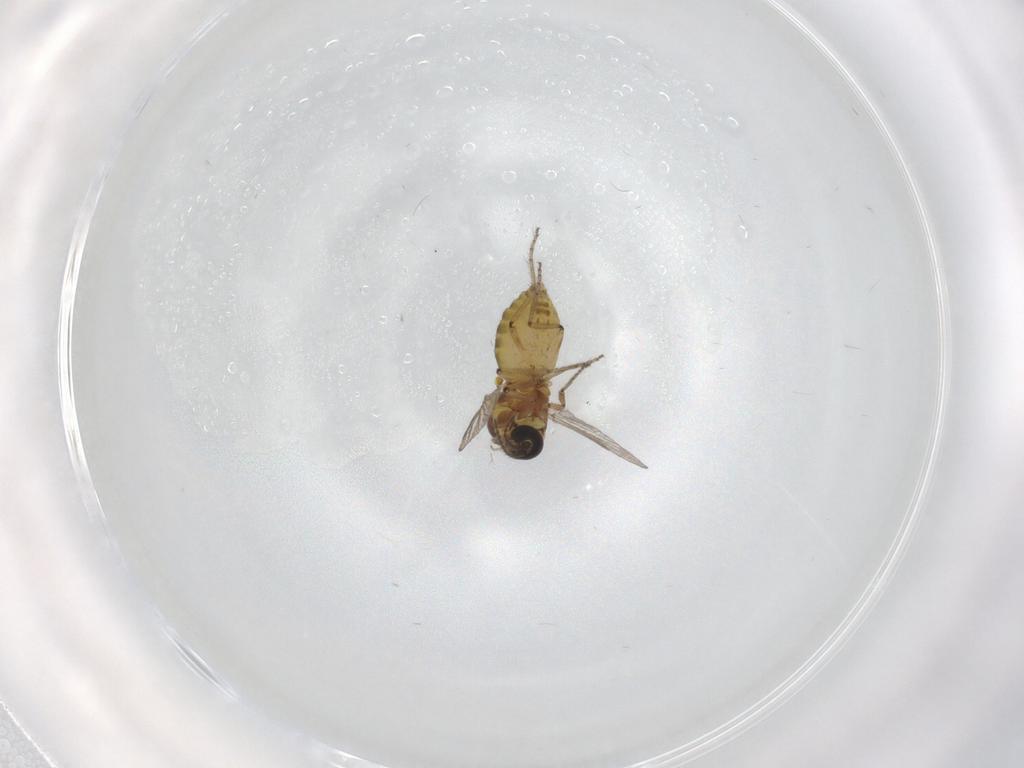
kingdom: Animalia
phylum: Arthropoda
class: Insecta
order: Diptera
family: Ceratopogonidae
